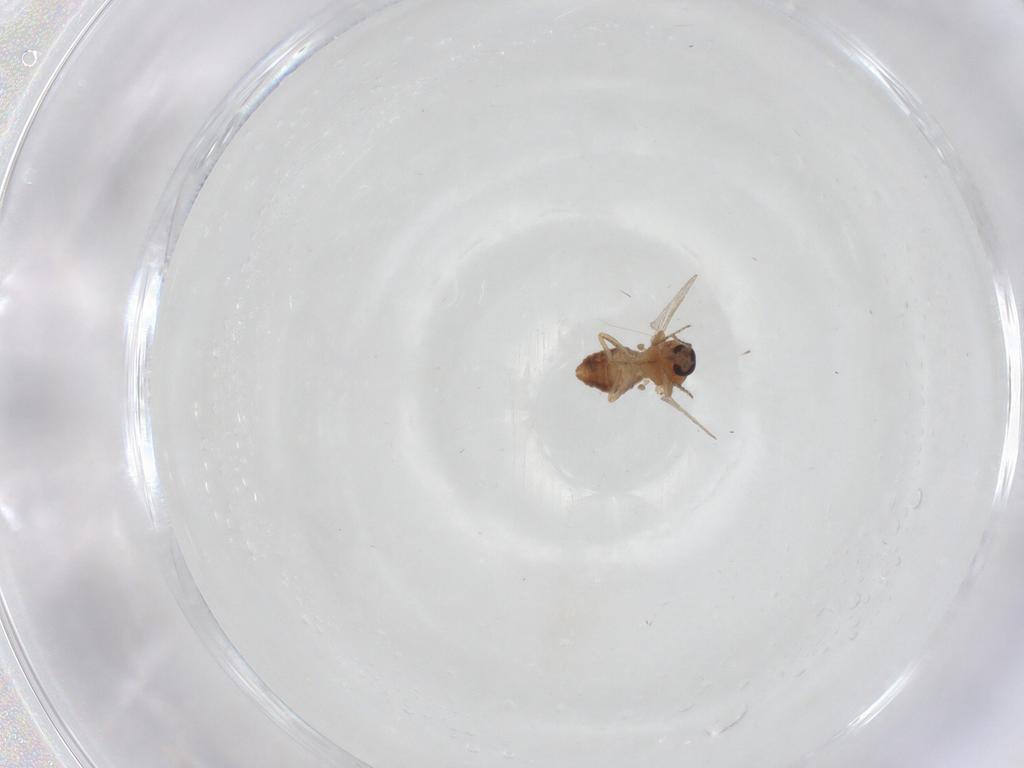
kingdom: Animalia
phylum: Arthropoda
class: Insecta
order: Diptera
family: Ceratopogonidae
